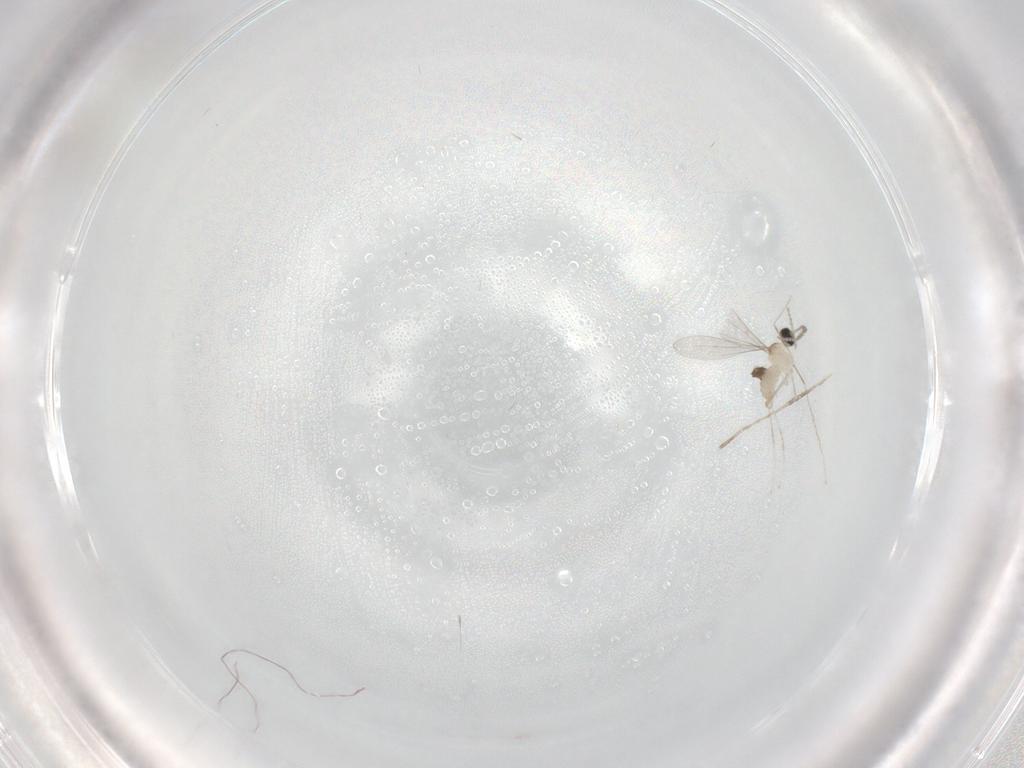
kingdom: Animalia
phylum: Arthropoda
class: Insecta
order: Diptera
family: Cecidomyiidae
